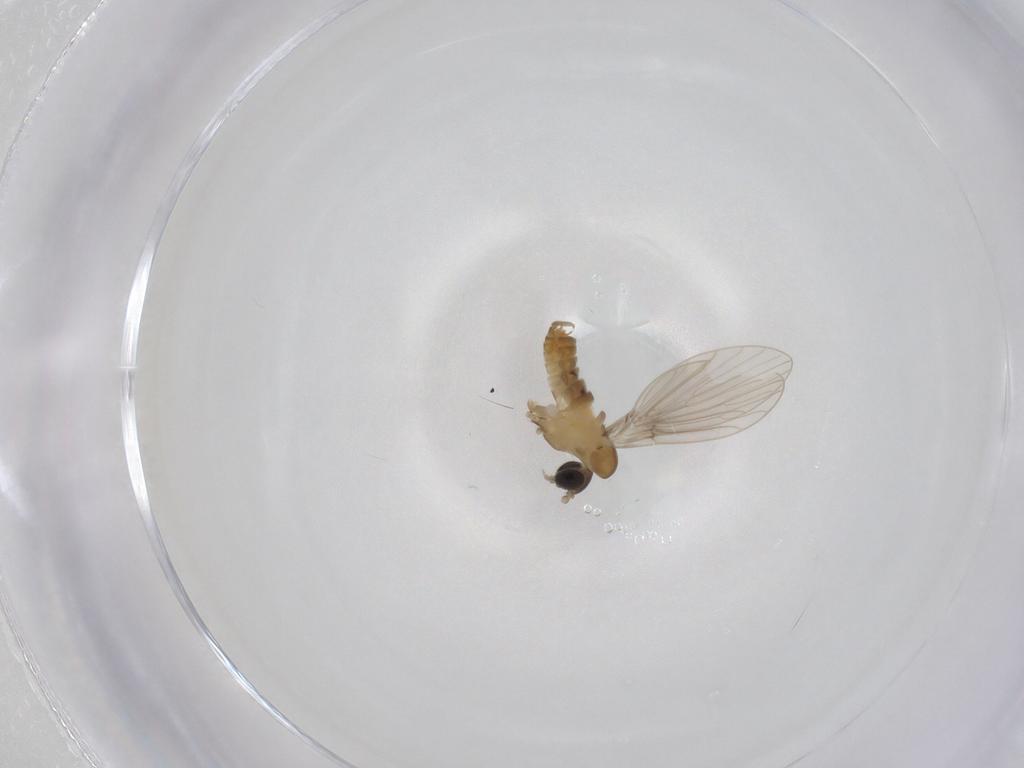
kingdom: Animalia
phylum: Arthropoda
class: Insecta
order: Diptera
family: Psychodidae
